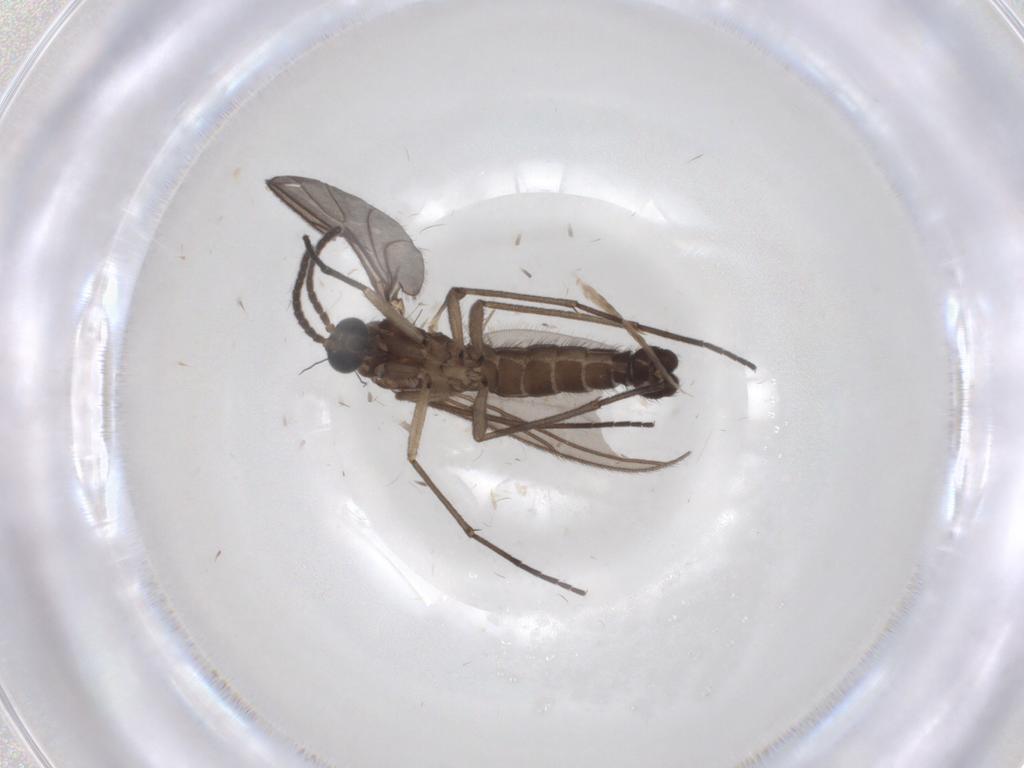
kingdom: Animalia
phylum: Arthropoda
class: Insecta
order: Diptera
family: Sciaridae
